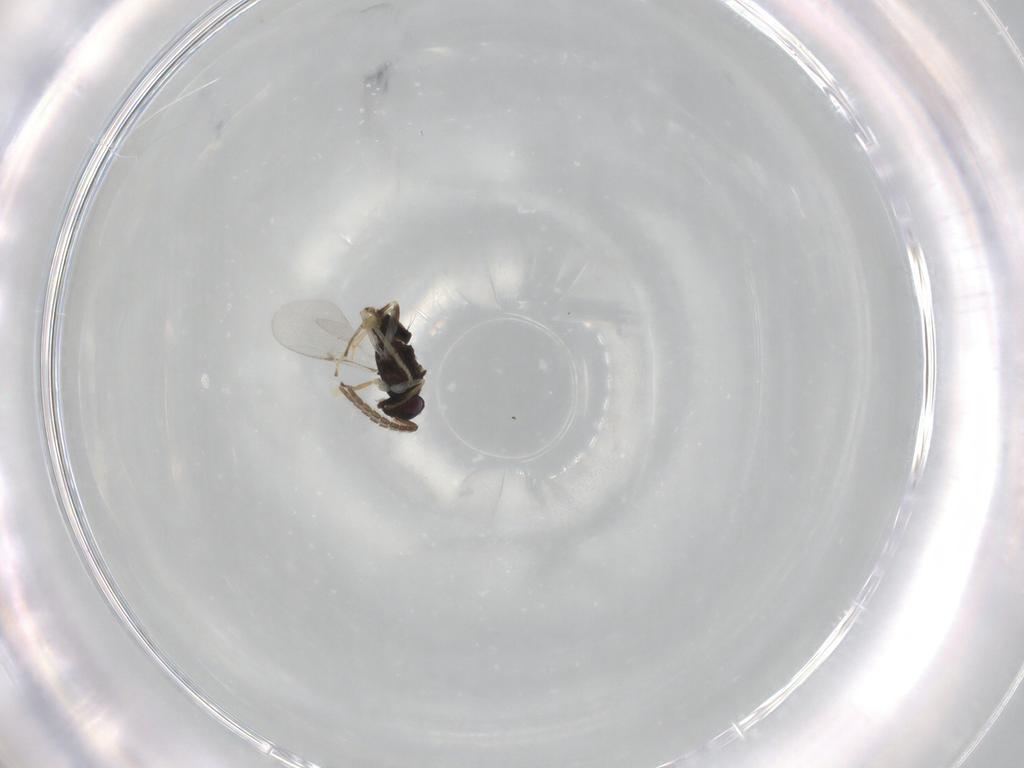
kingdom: Animalia
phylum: Arthropoda
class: Insecta
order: Hymenoptera
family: Encyrtidae
